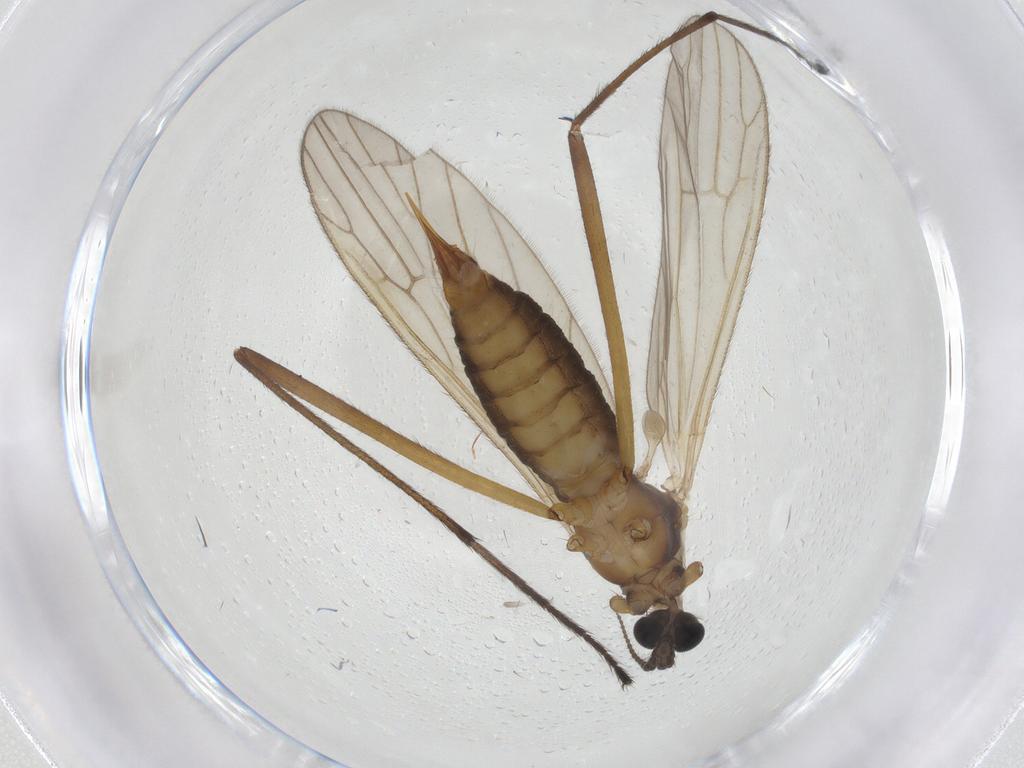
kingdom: Animalia
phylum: Arthropoda
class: Insecta
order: Diptera
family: Agromyzidae
